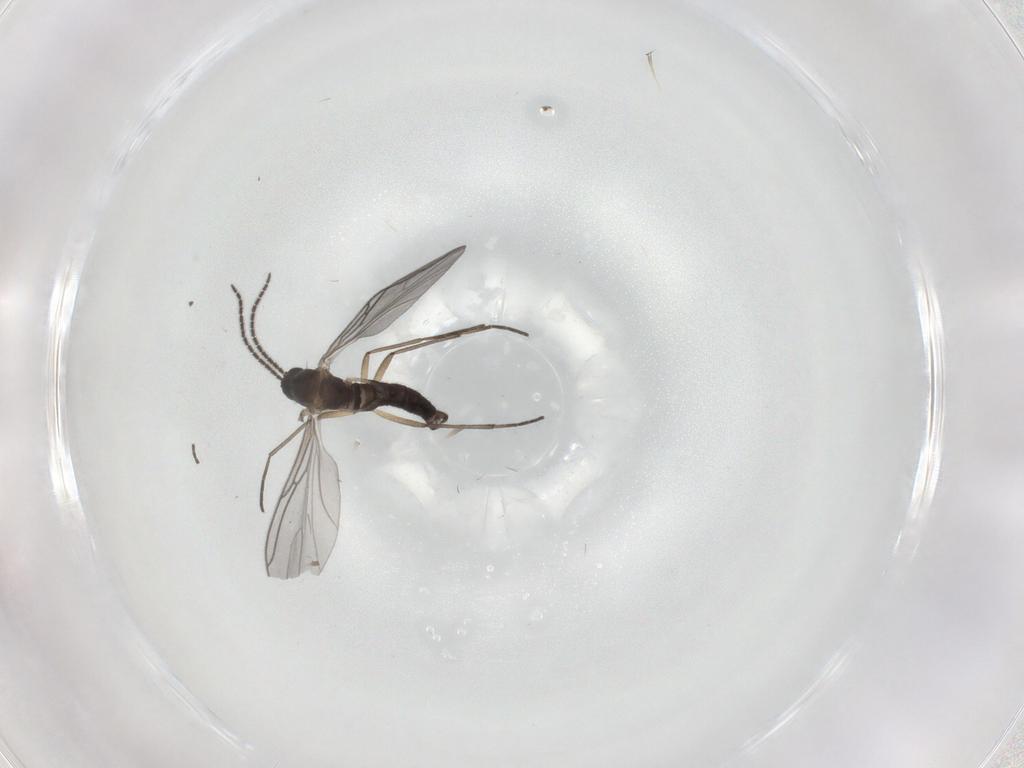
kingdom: Animalia
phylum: Arthropoda
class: Insecta
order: Diptera
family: Sciaridae
